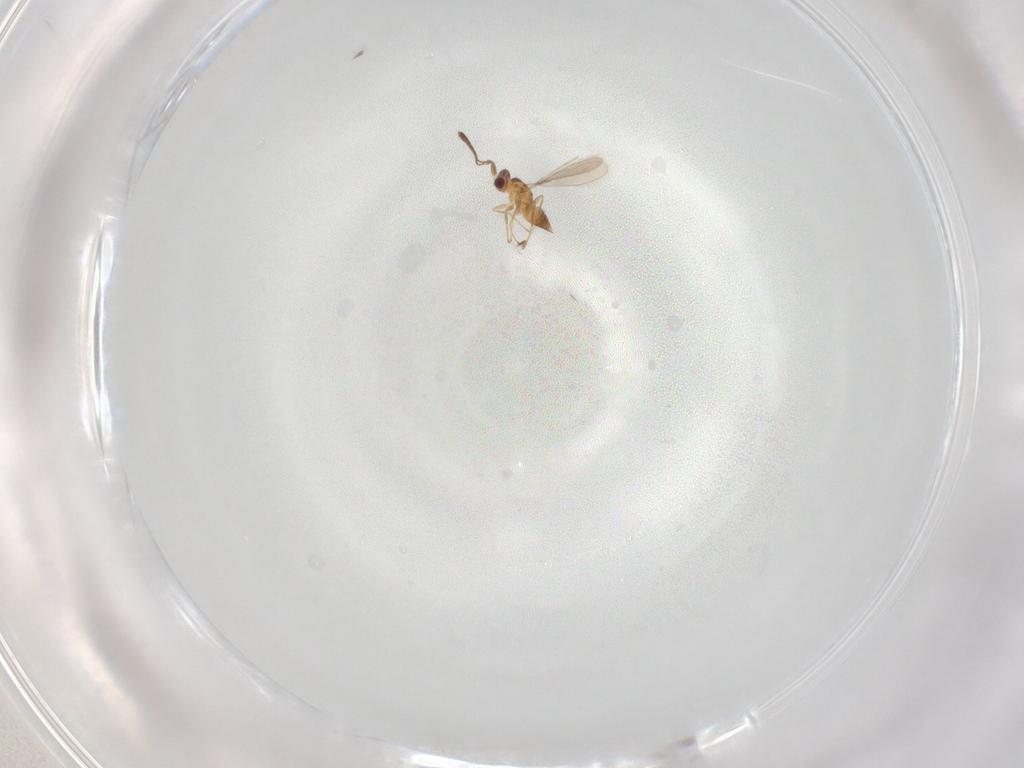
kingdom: Animalia
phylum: Arthropoda
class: Insecta
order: Hymenoptera
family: Mymaridae
